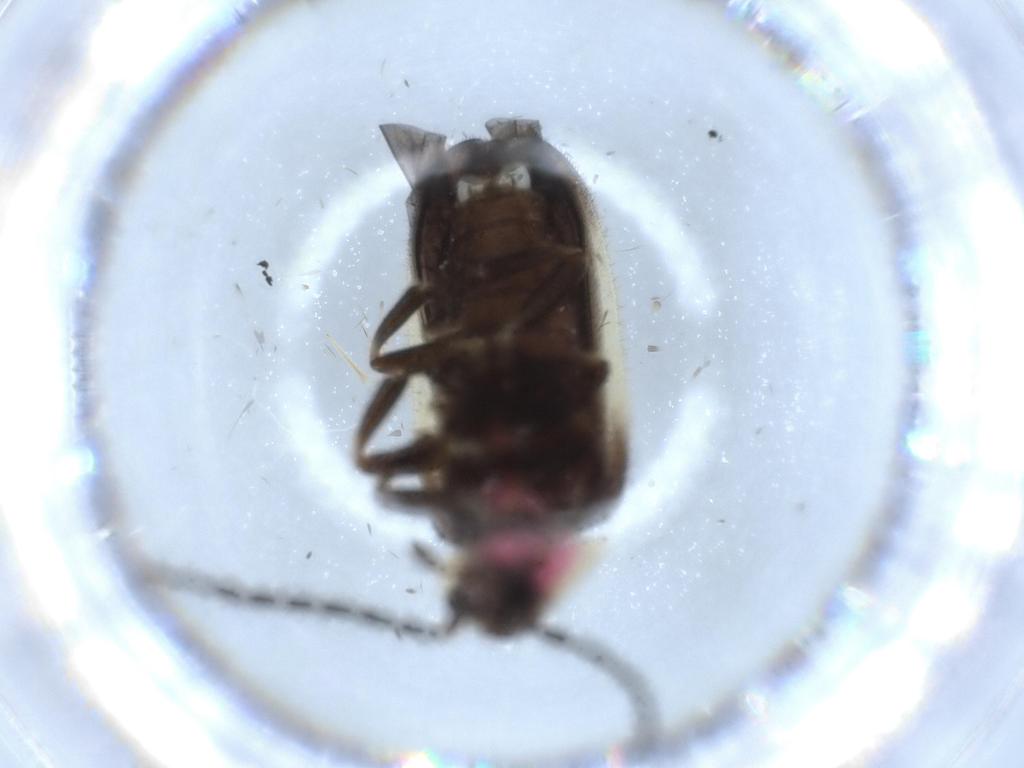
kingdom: Animalia
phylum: Arthropoda
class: Insecta
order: Coleoptera
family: Lampyridae
